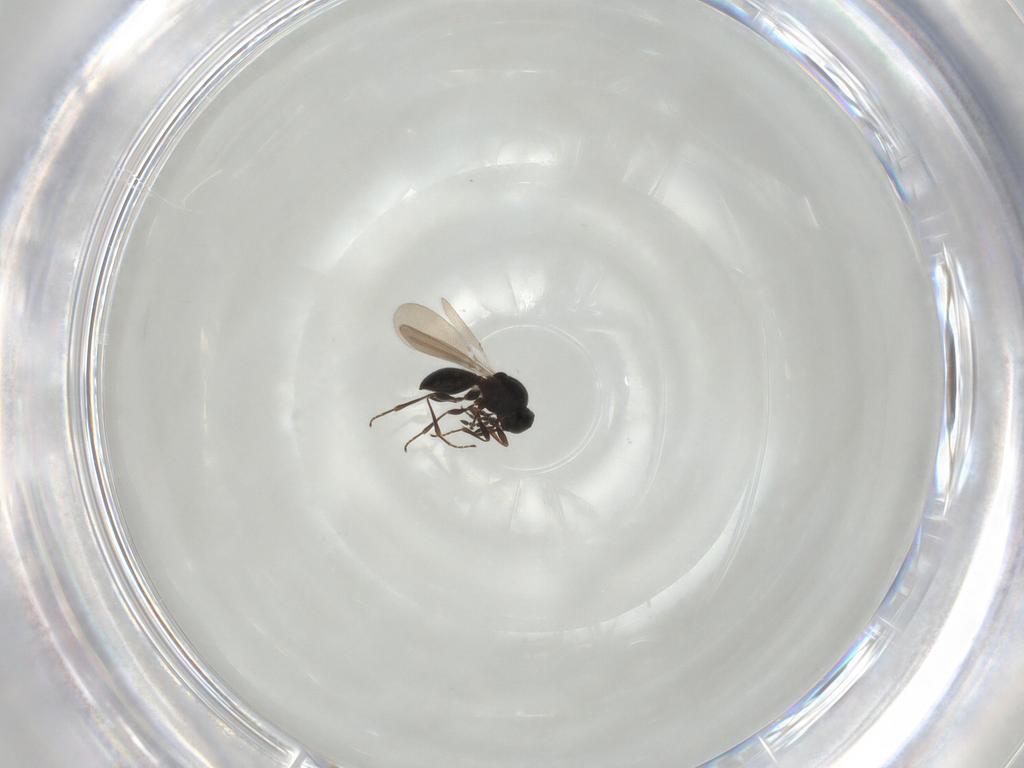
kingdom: Animalia
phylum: Arthropoda
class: Insecta
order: Hymenoptera
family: Platygastridae
